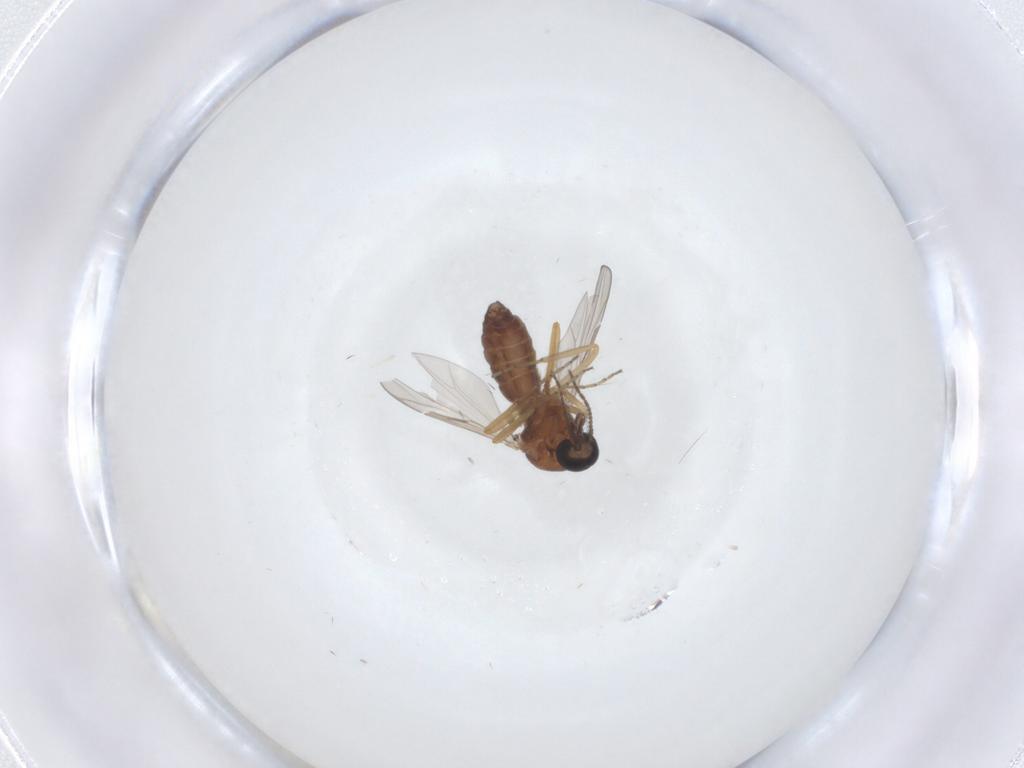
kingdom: Animalia
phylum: Arthropoda
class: Insecta
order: Diptera
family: Ceratopogonidae
